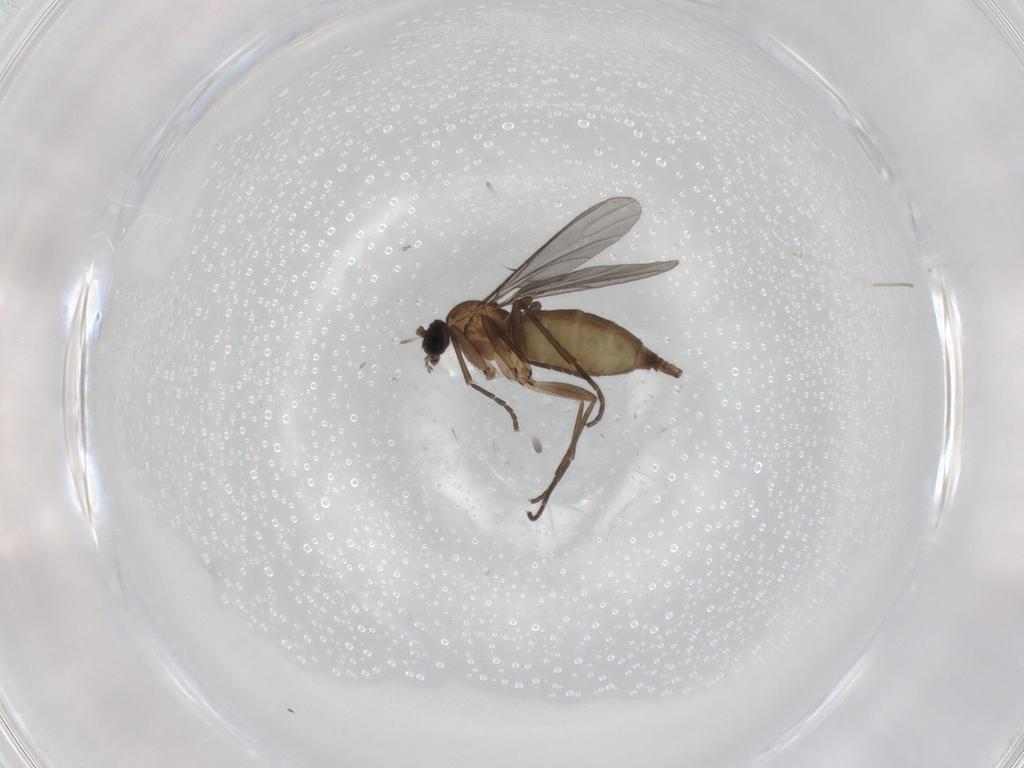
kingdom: Animalia
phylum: Arthropoda
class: Insecta
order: Diptera
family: Sciaridae
